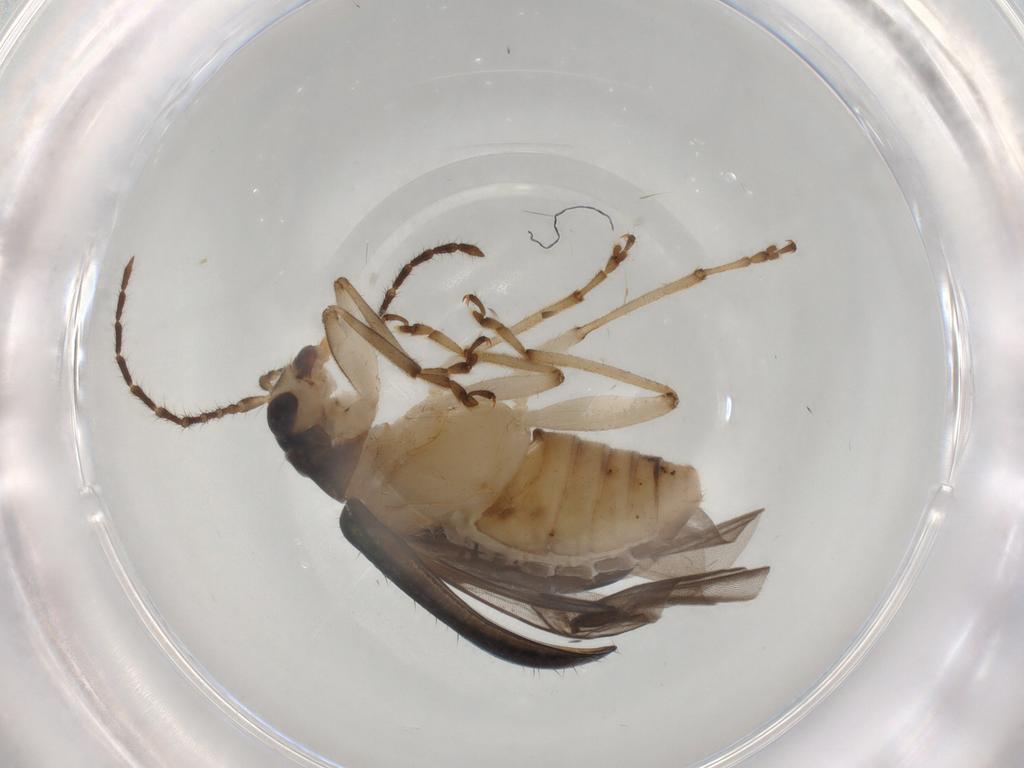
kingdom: Animalia
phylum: Arthropoda
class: Insecta
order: Coleoptera
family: Chrysomelidae
